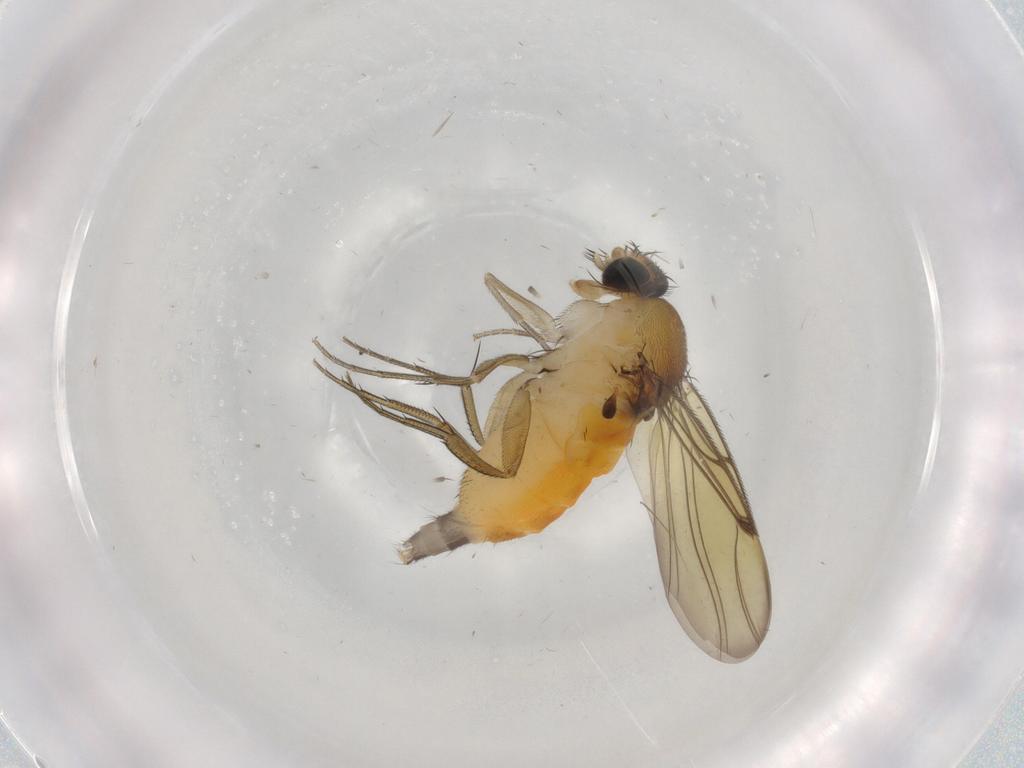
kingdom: Animalia
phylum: Arthropoda
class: Insecta
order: Diptera
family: Phoridae
